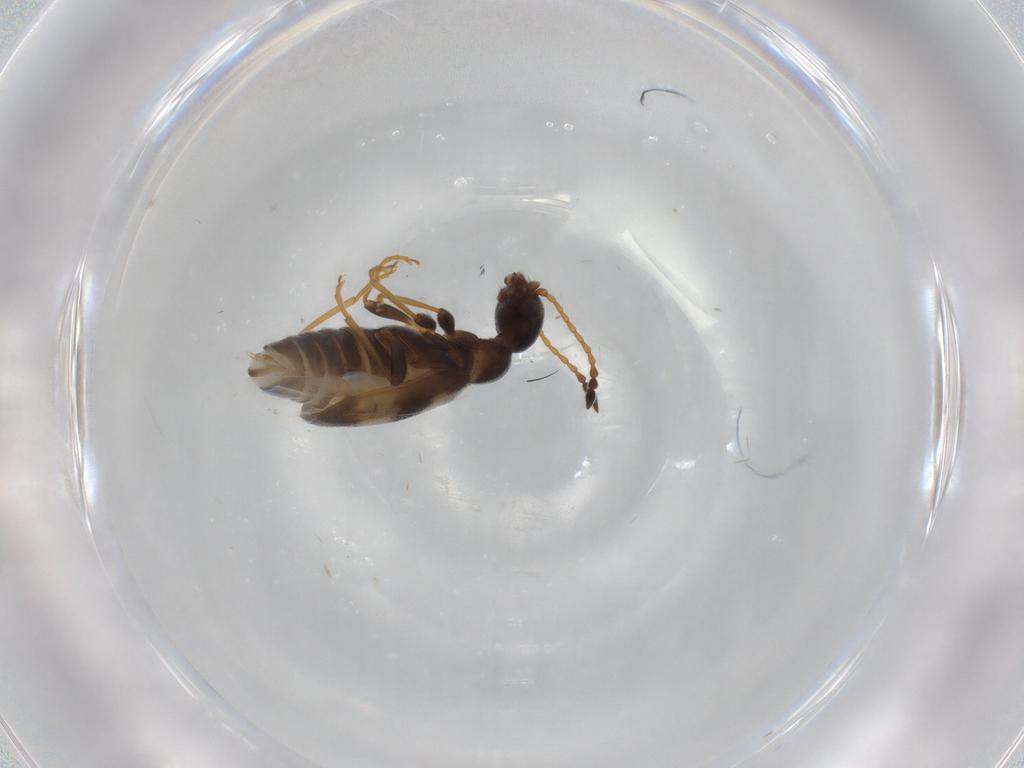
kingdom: Animalia
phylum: Arthropoda
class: Insecta
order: Coleoptera
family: Anthicidae
